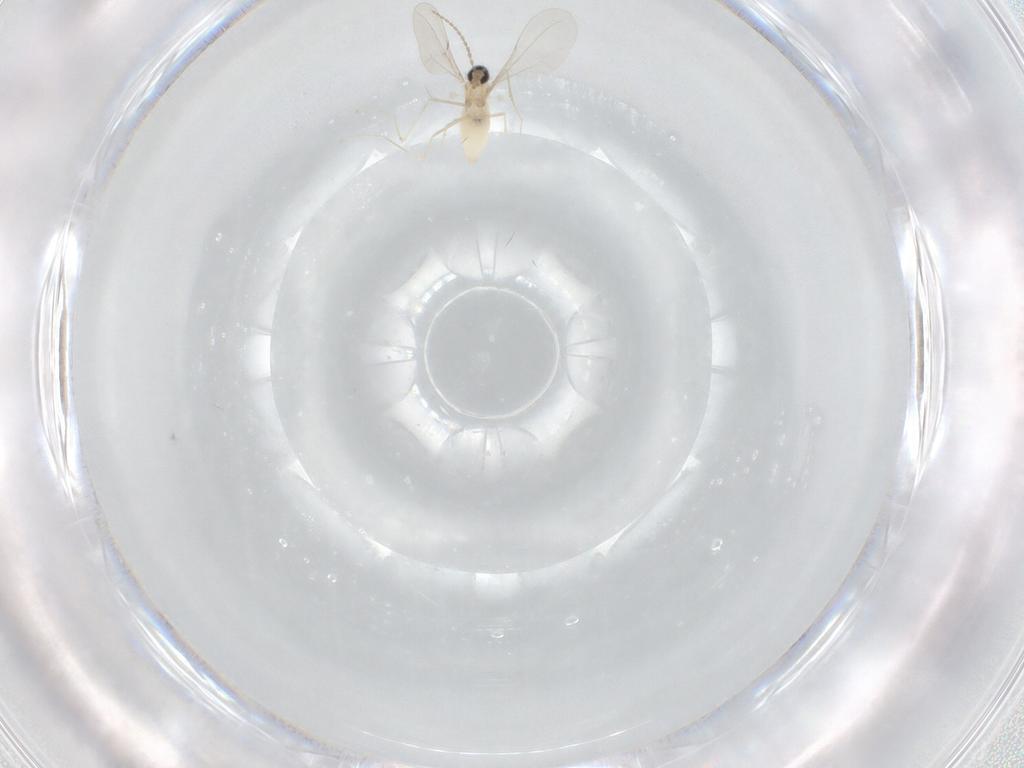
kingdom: Animalia
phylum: Arthropoda
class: Insecta
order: Diptera
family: Cecidomyiidae
